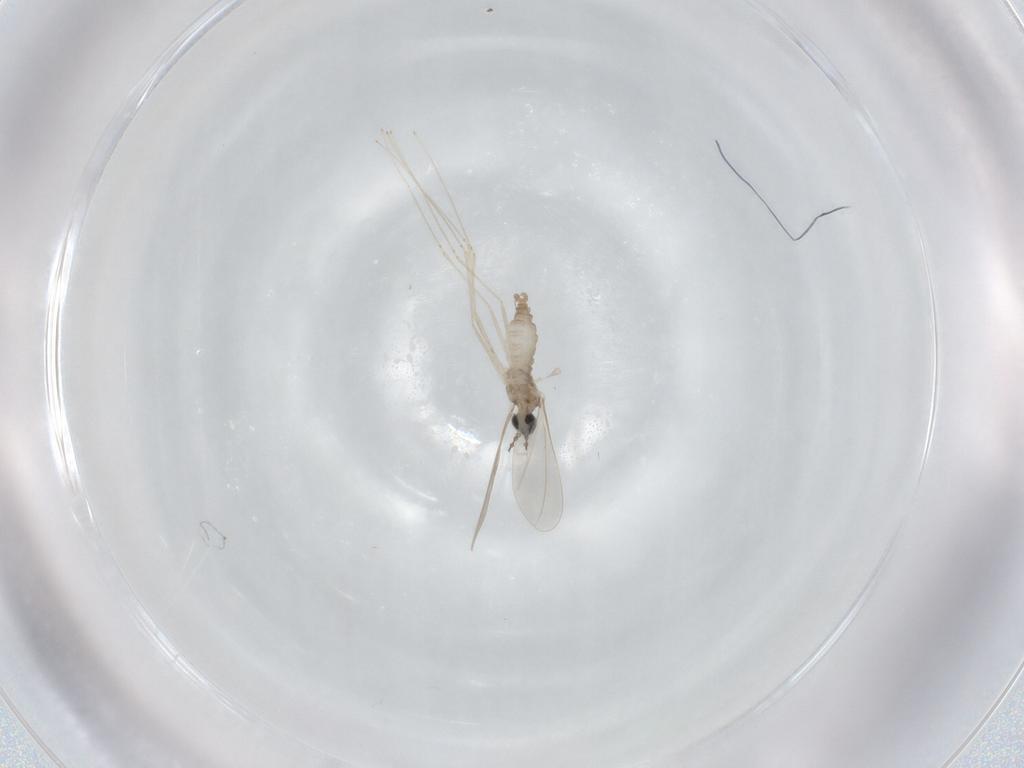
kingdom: Animalia
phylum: Arthropoda
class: Insecta
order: Diptera
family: Cecidomyiidae
